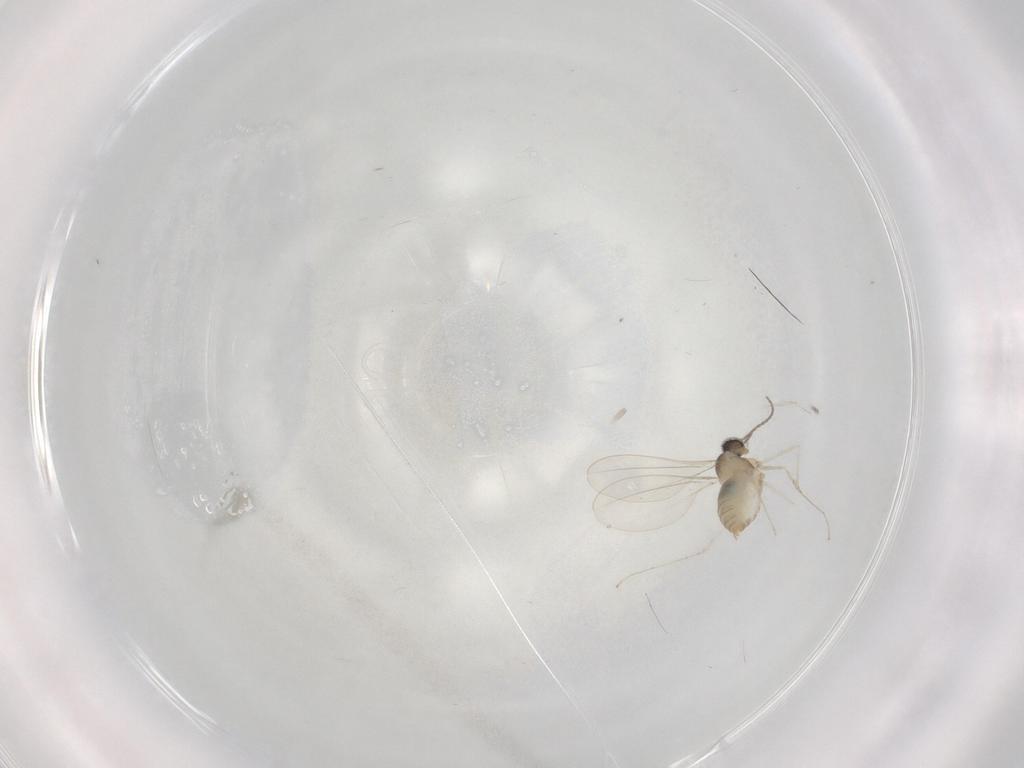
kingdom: Animalia
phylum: Arthropoda
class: Insecta
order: Diptera
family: Cecidomyiidae
